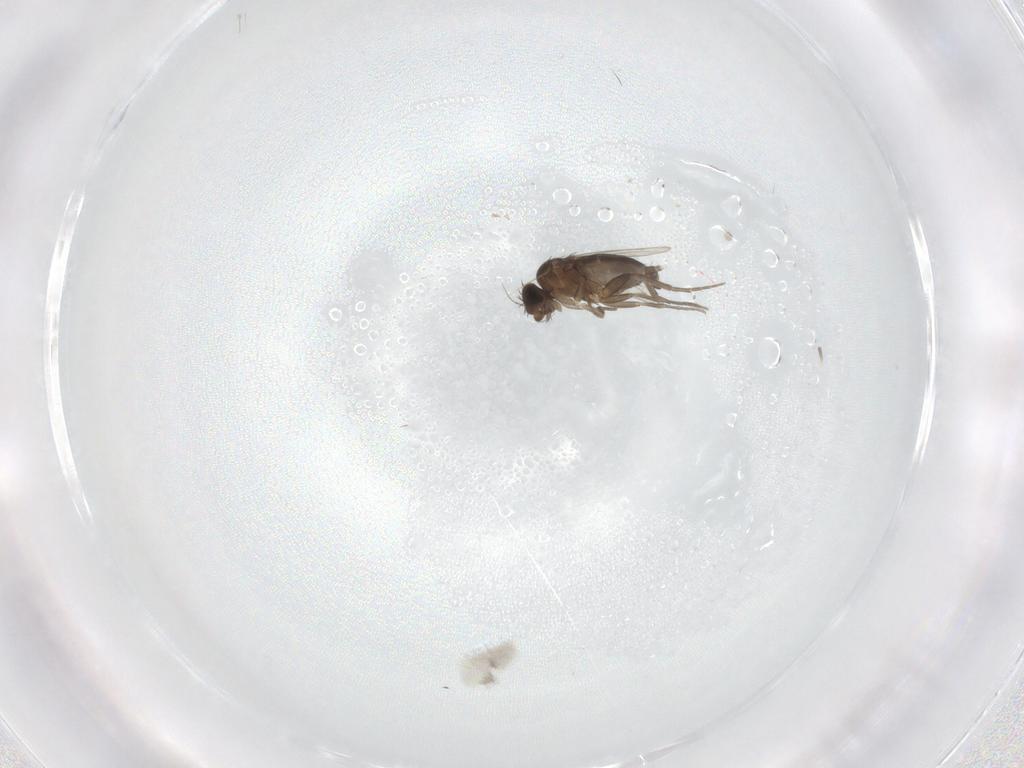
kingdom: Animalia
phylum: Arthropoda
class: Insecta
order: Diptera
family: Phoridae
